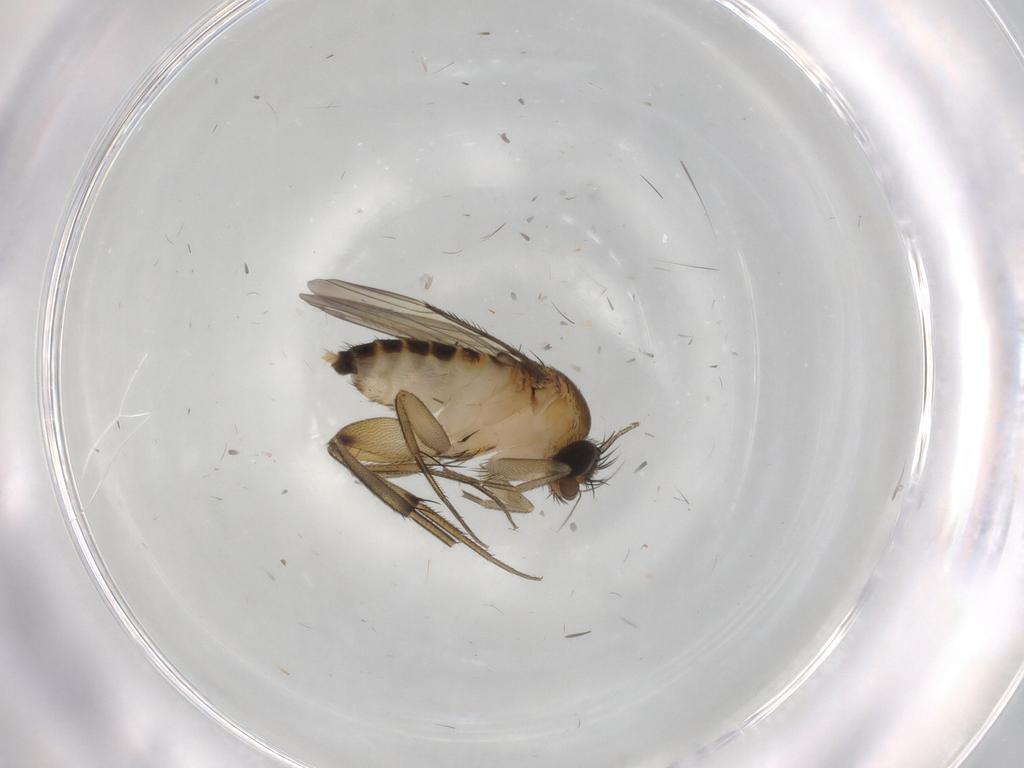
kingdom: Animalia
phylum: Arthropoda
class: Insecta
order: Diptera
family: Phoridae
